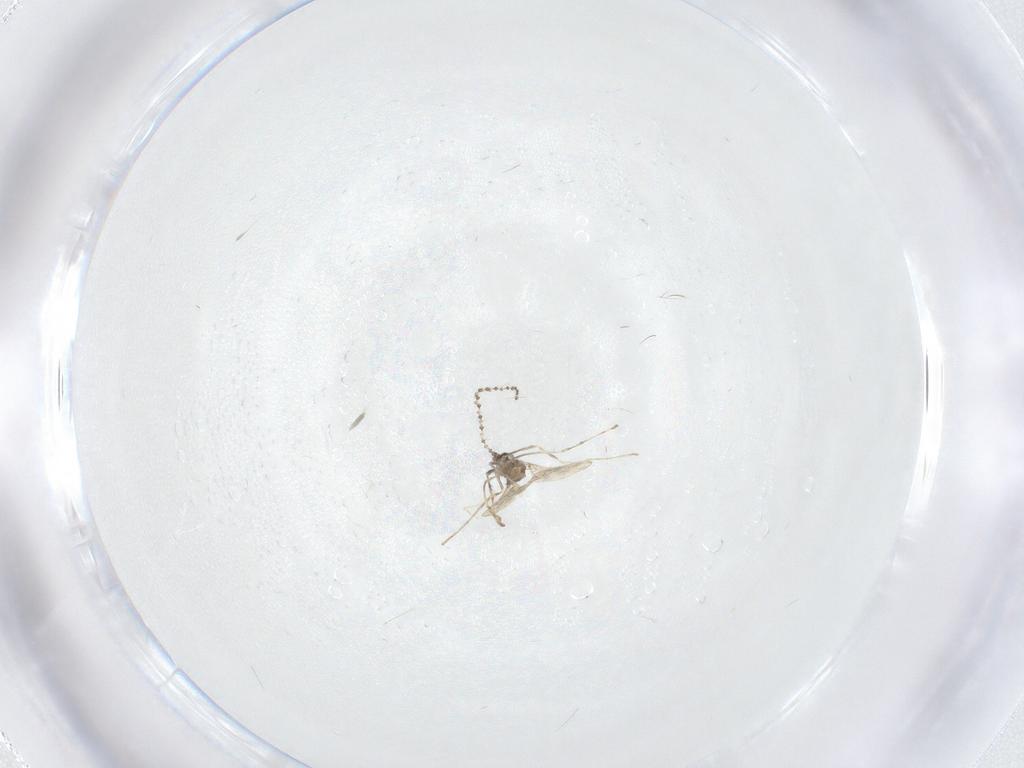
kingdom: Animalia
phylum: Arthropoda
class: Insecta
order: Diptera
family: Cecidomyiidae
